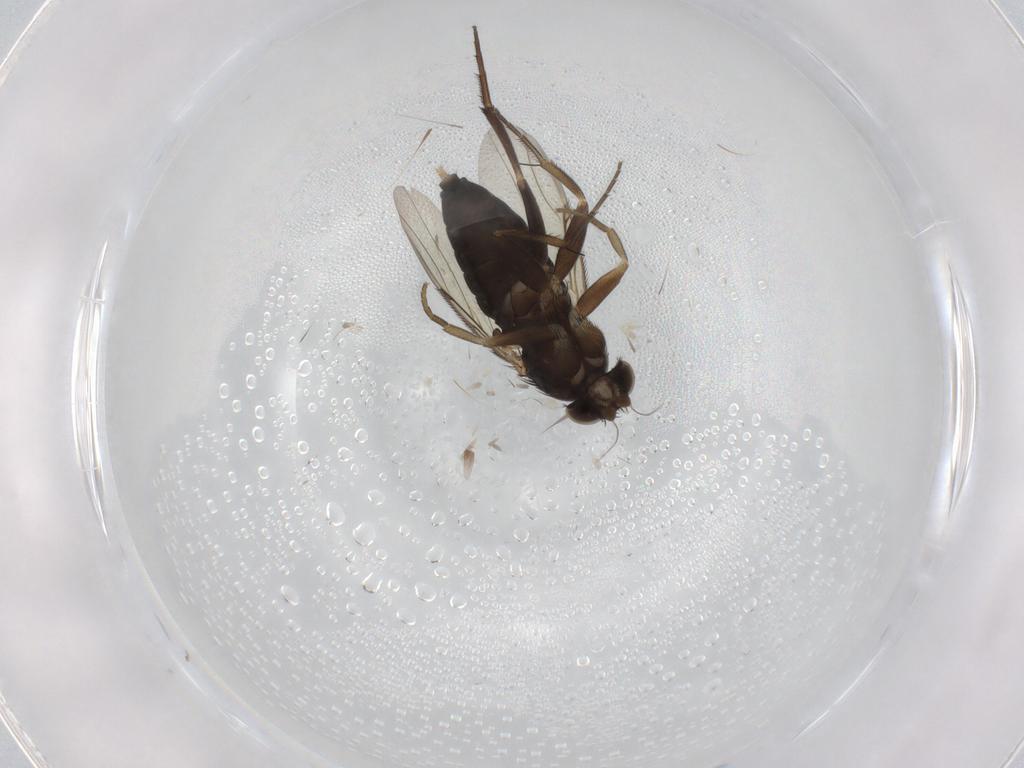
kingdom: Animalia
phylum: Arthropoda
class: Insecta
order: Diptera
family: Phoridae
